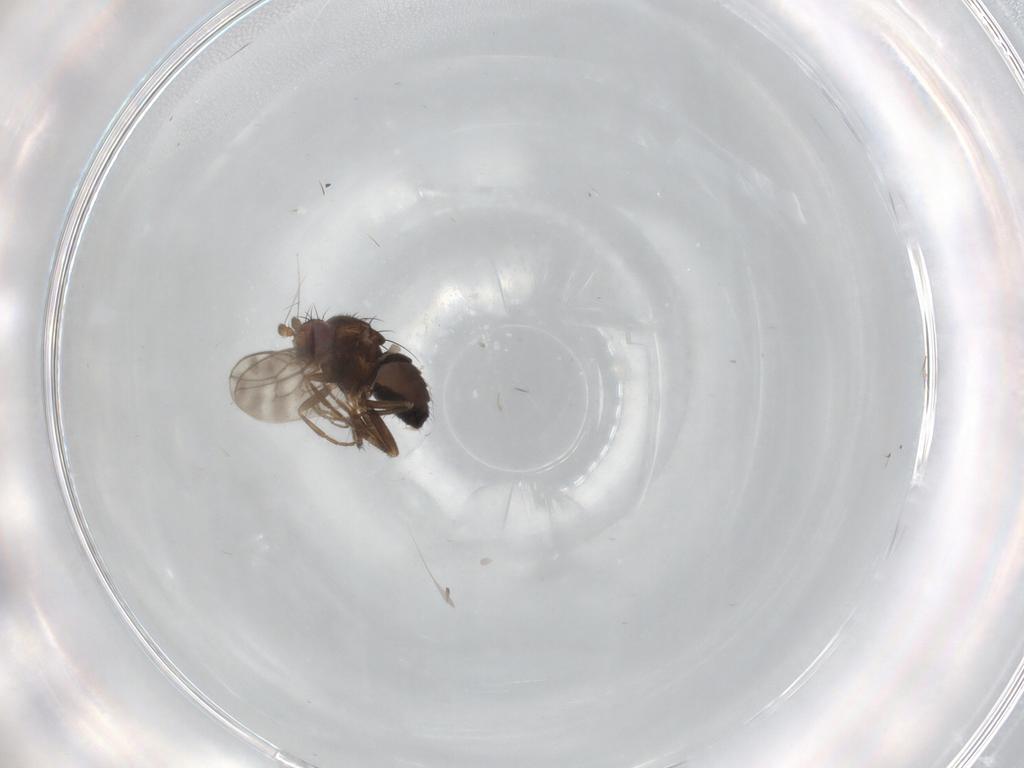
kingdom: Animalia
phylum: Arthropoda
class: Insecta
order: Diptera
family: Sphaeroceridae
